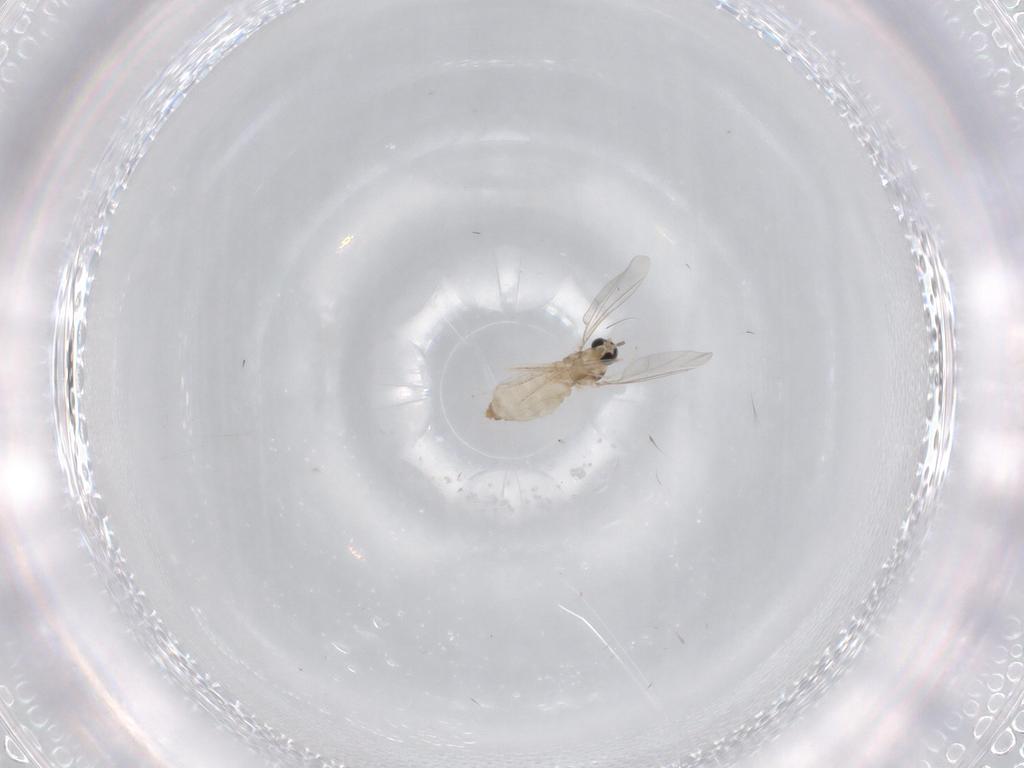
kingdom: Animalia
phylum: Arthropoda
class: Insecta
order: Diptera
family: Cecidomyiidae
